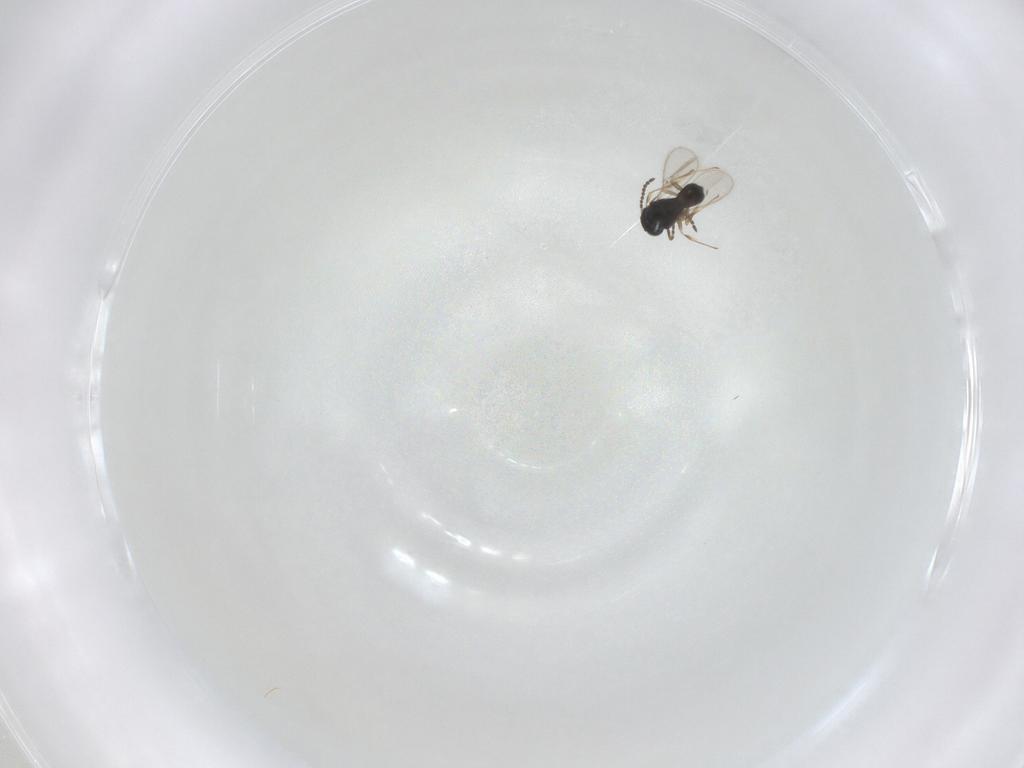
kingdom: Animalia
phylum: Arthropoda
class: Insecta
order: Hymenoptera
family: Scelionidae
